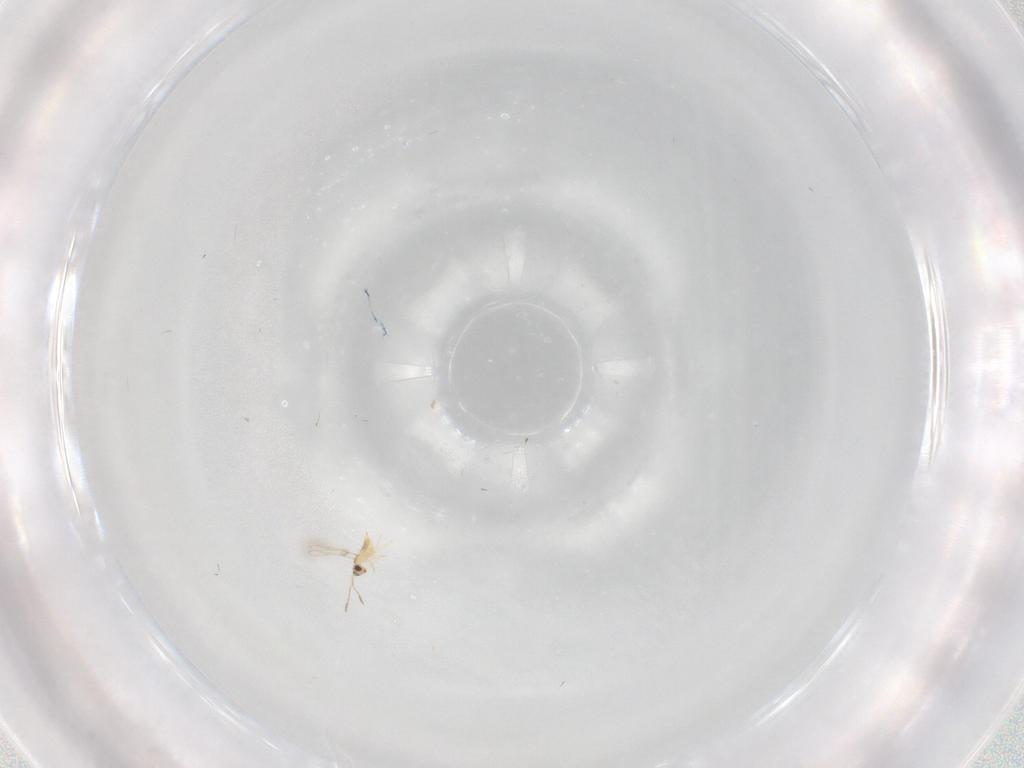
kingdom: Animalia
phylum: Arthropoda
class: Insecta
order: Hymenoptera
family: Mymaridae
